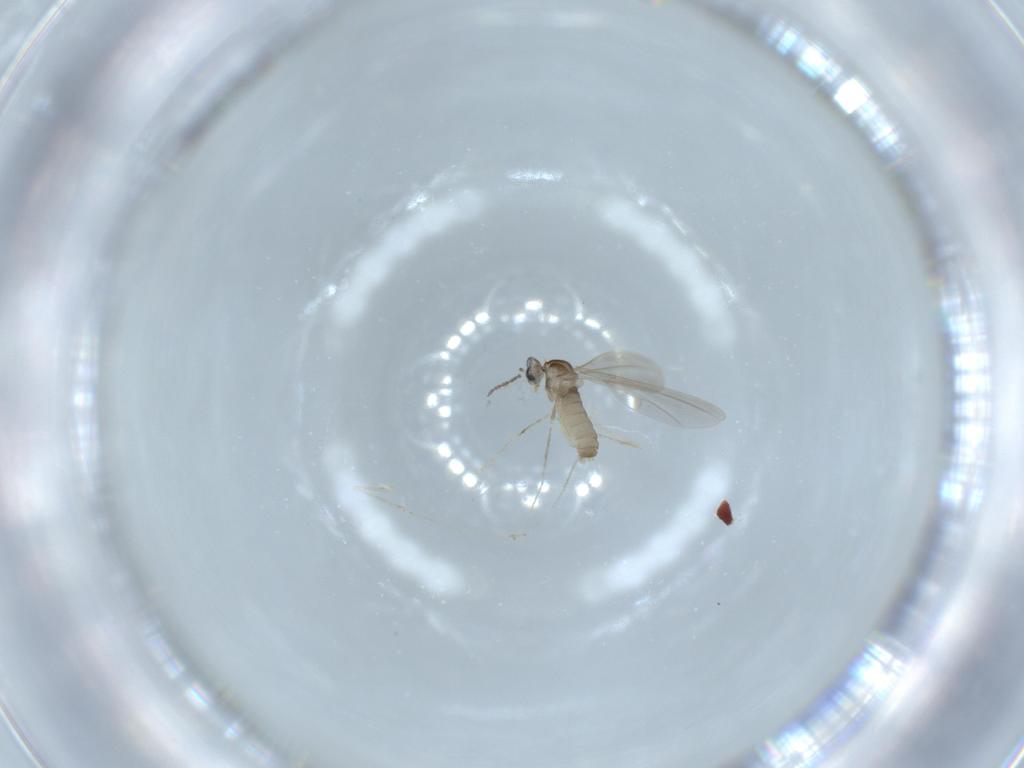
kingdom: Animalia
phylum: Arthropoda
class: Insecta
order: Diptera
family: Cecidomyiidae
